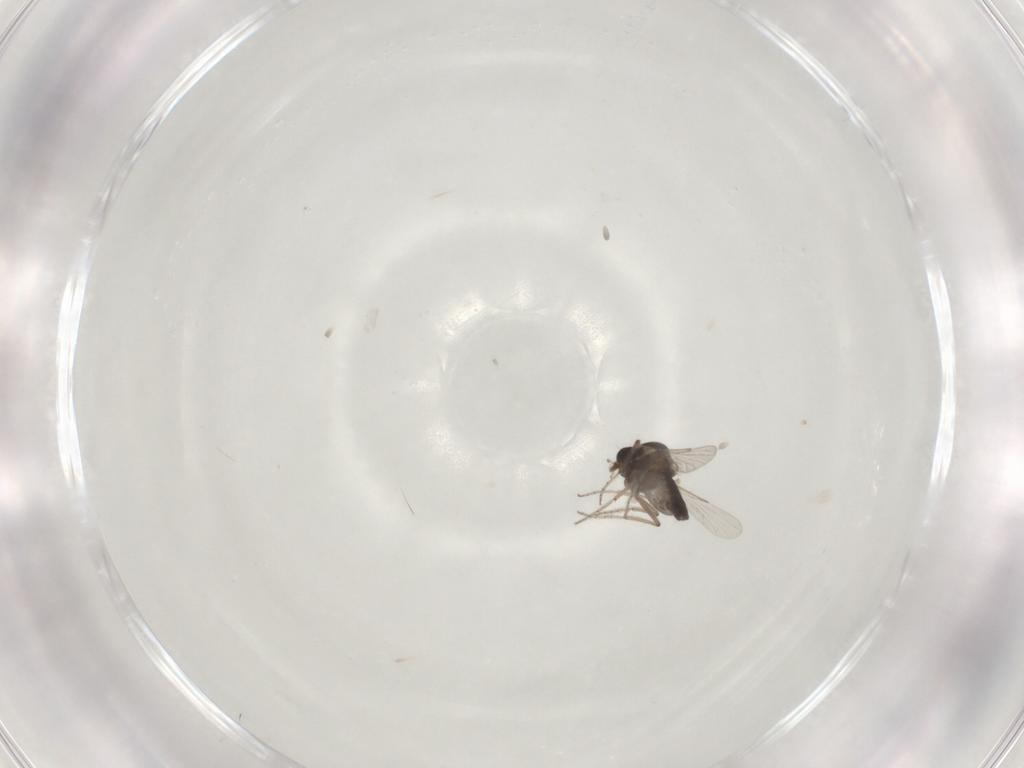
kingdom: Animalia
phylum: Arthropoda
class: Insecta
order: Diptera
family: Ceratopogonidae
